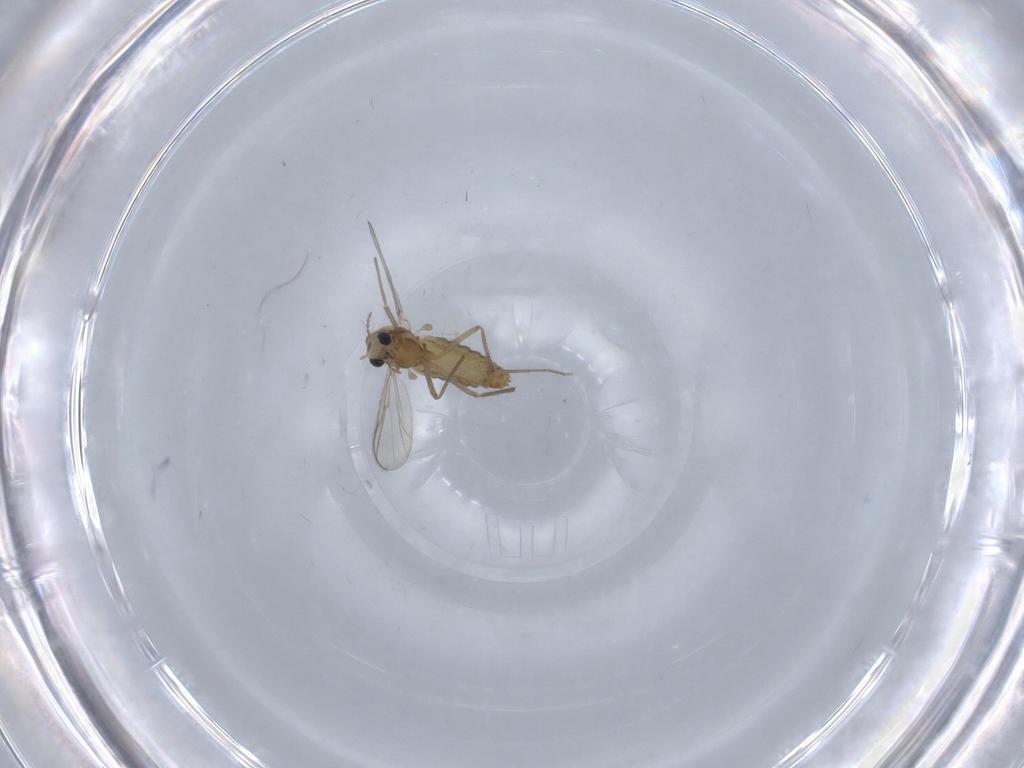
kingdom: Animalia
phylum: Arthropoda
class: Insecta
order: Diptera
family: Chironomidae
